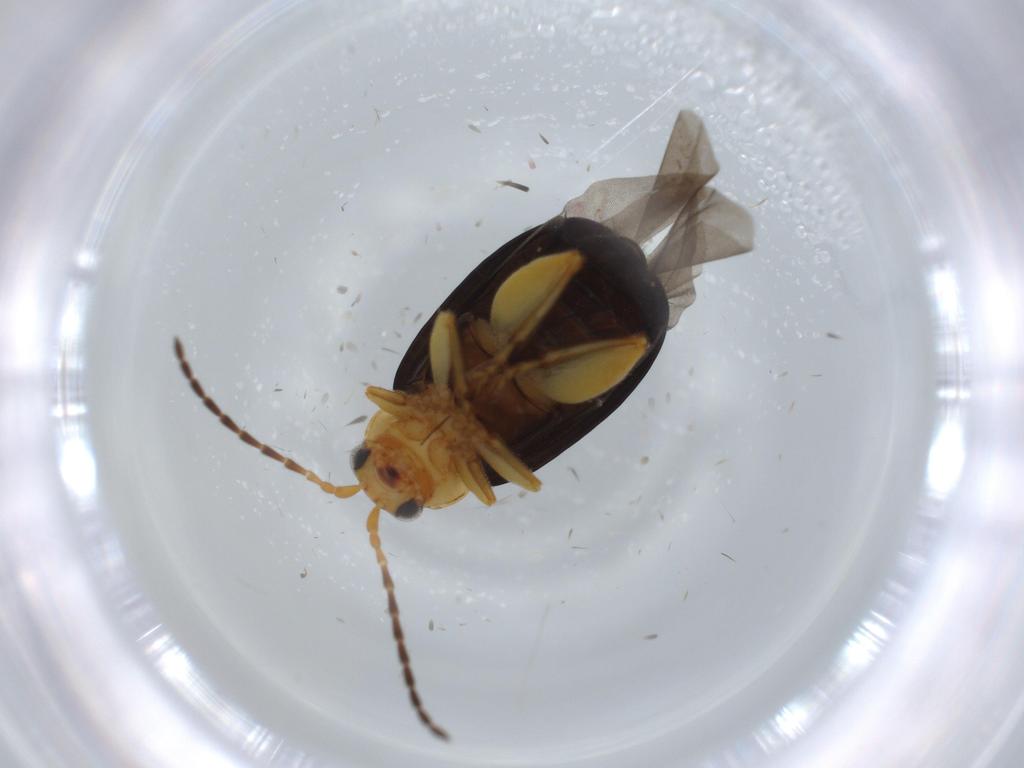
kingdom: Animalia
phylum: Arthropoda
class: Insecta
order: Coleoptera
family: Chrysomelidae
